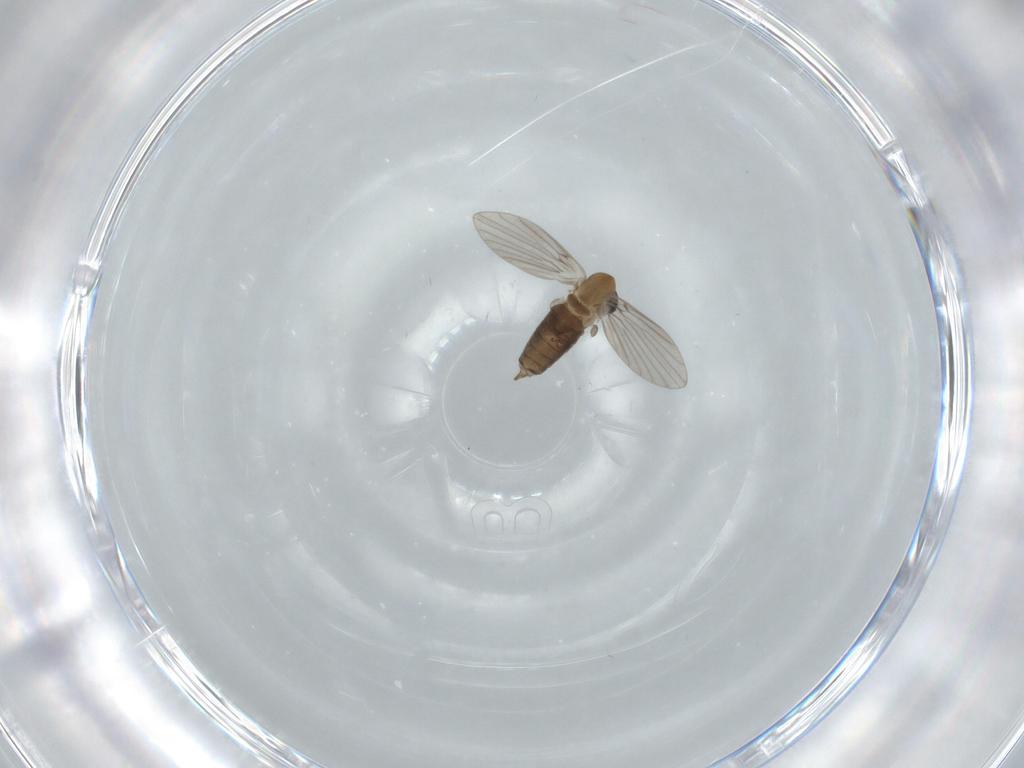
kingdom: Animalia
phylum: Arthropoda
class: Insecta
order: Diptera
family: Psychodidae
